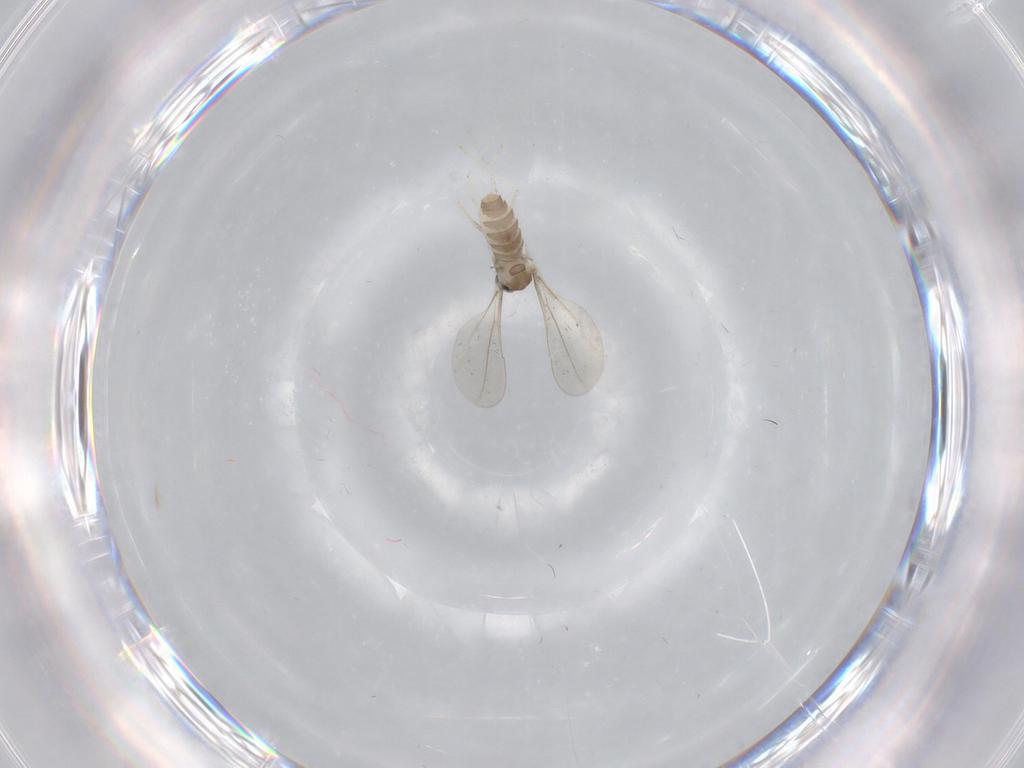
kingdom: Animalia
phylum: Arthropoda
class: Insecta
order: Diptera
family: Cecidomyiidae
